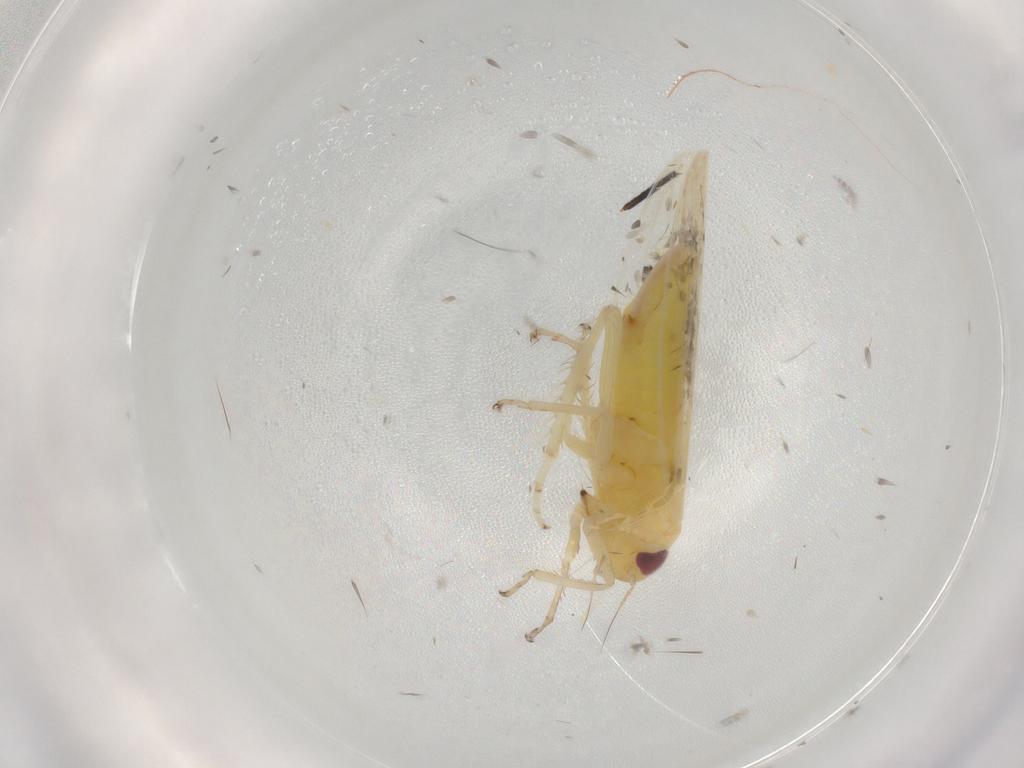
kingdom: Animalia
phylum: Arthropoda
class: Insecta
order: Hemiptera
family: Cicadellidae
